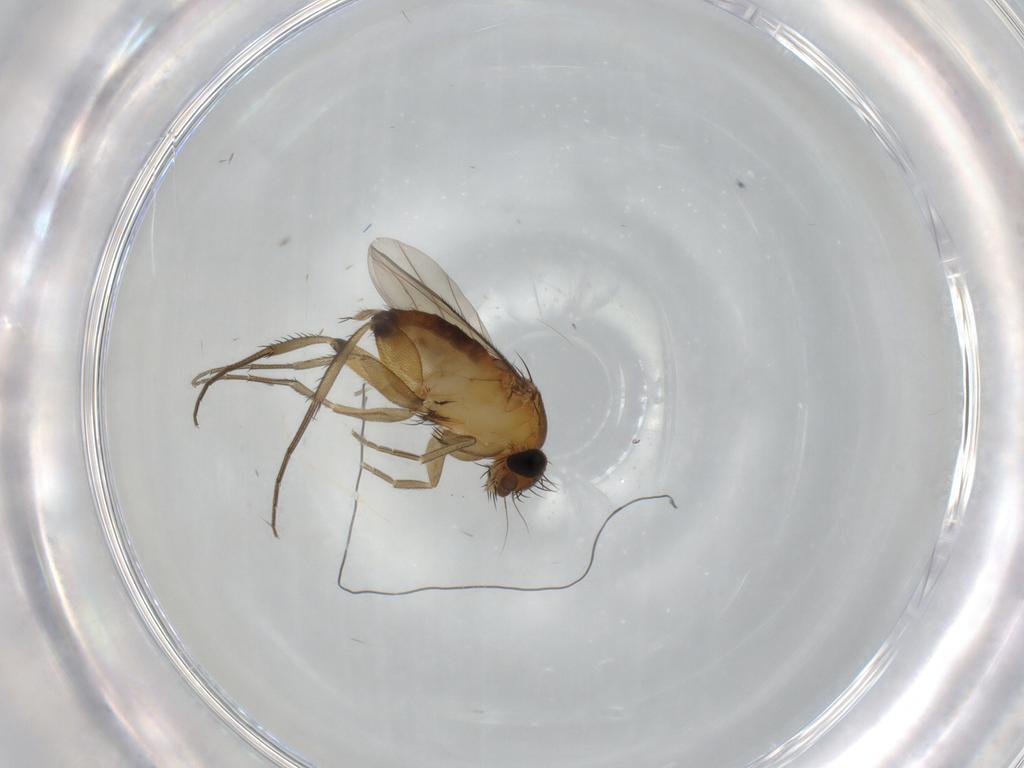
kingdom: Animalia
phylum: Arthropoda
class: Insecta
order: Diptera
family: Phoridae
